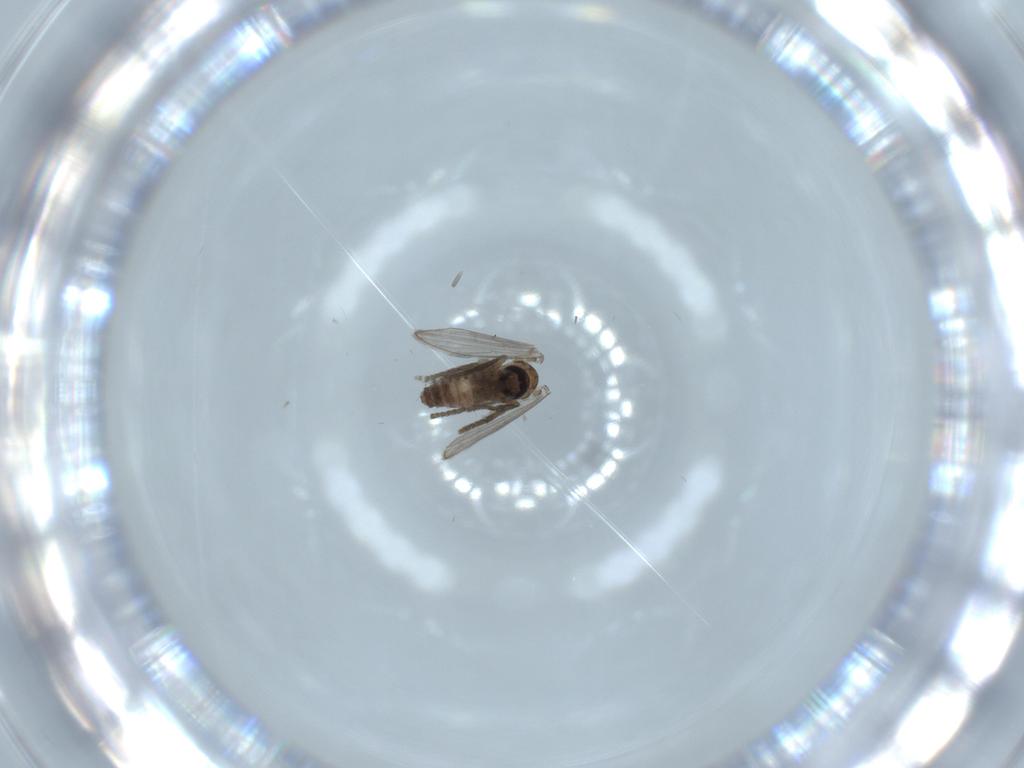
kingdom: Animalia
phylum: Arthropoda
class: Insecta
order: Diptera
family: Psychodidae
